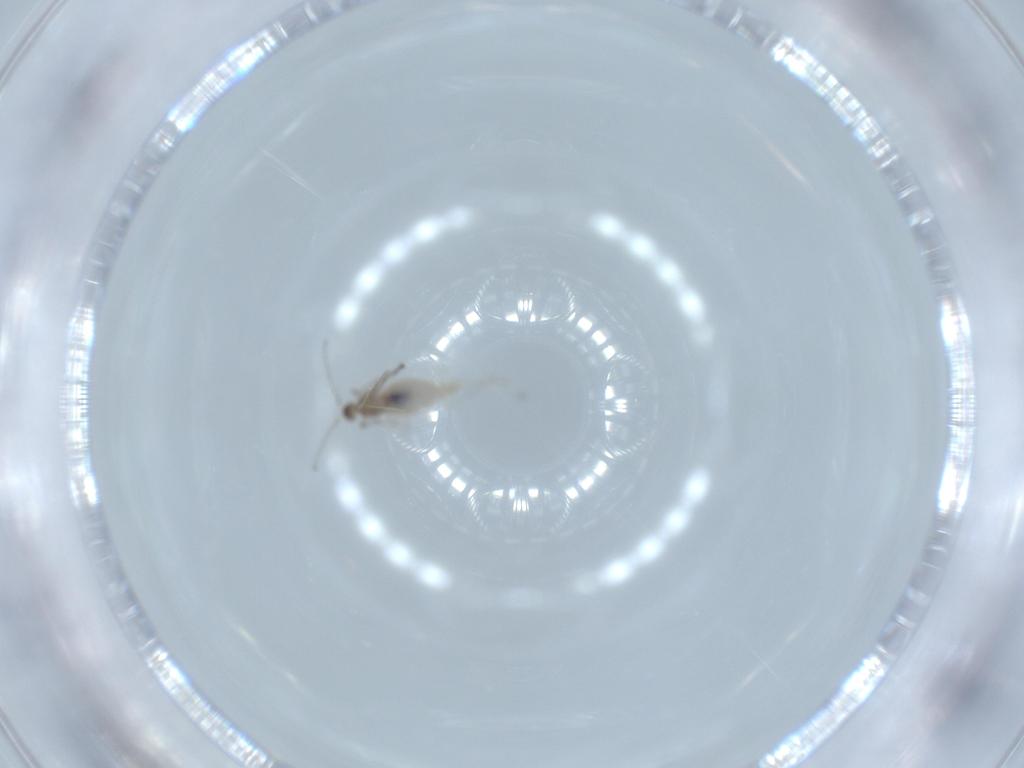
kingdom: Animalia
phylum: Arthropoda
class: Insecta
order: Diptera
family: Cecidomyiidae
